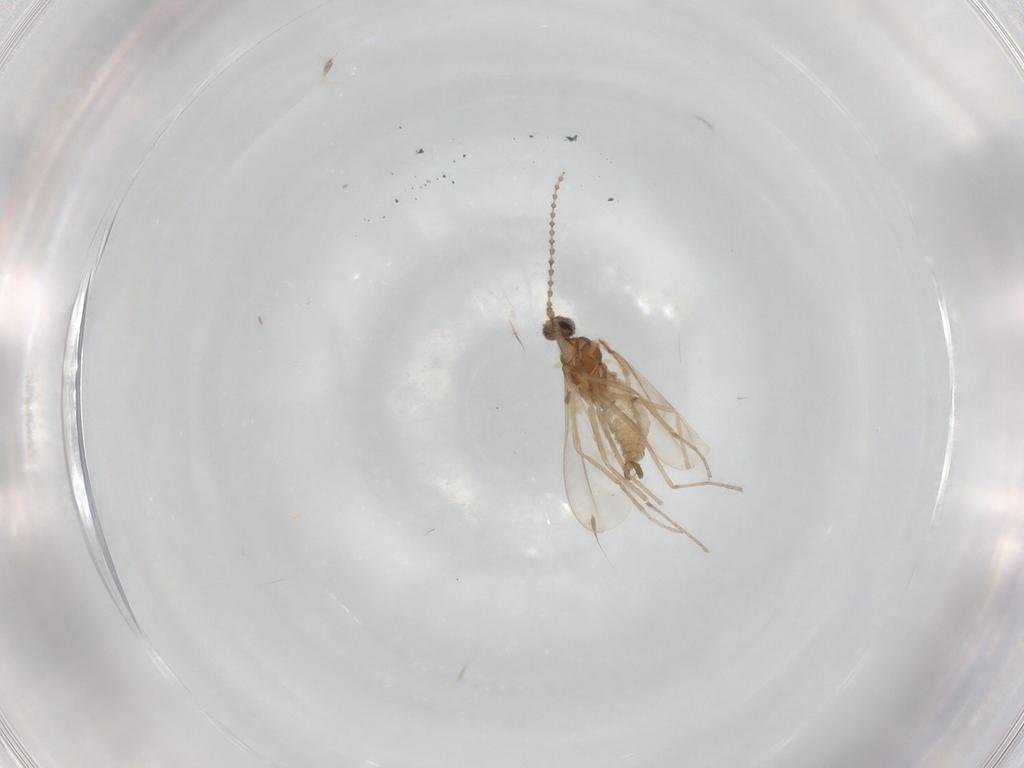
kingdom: Animalia
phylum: Arthropoda
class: Insecta
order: Diptera
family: Cecidomyiidae
